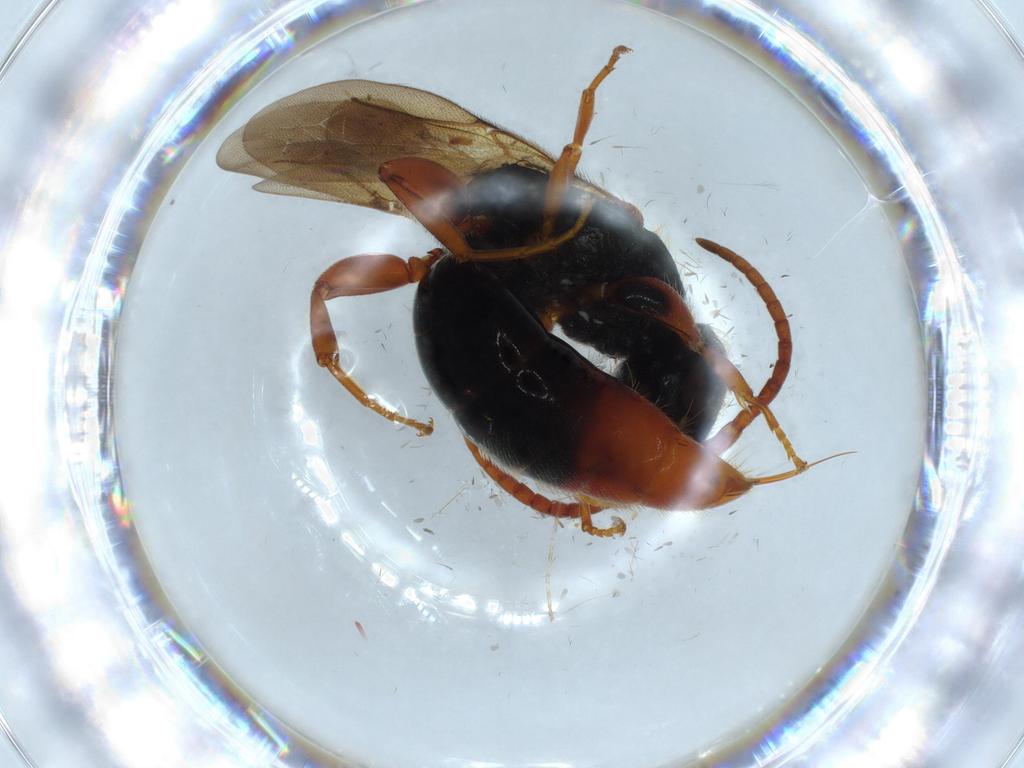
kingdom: Animalia
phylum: Arthropoda
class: Insecta
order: Hymenoptera
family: Bethylidae
